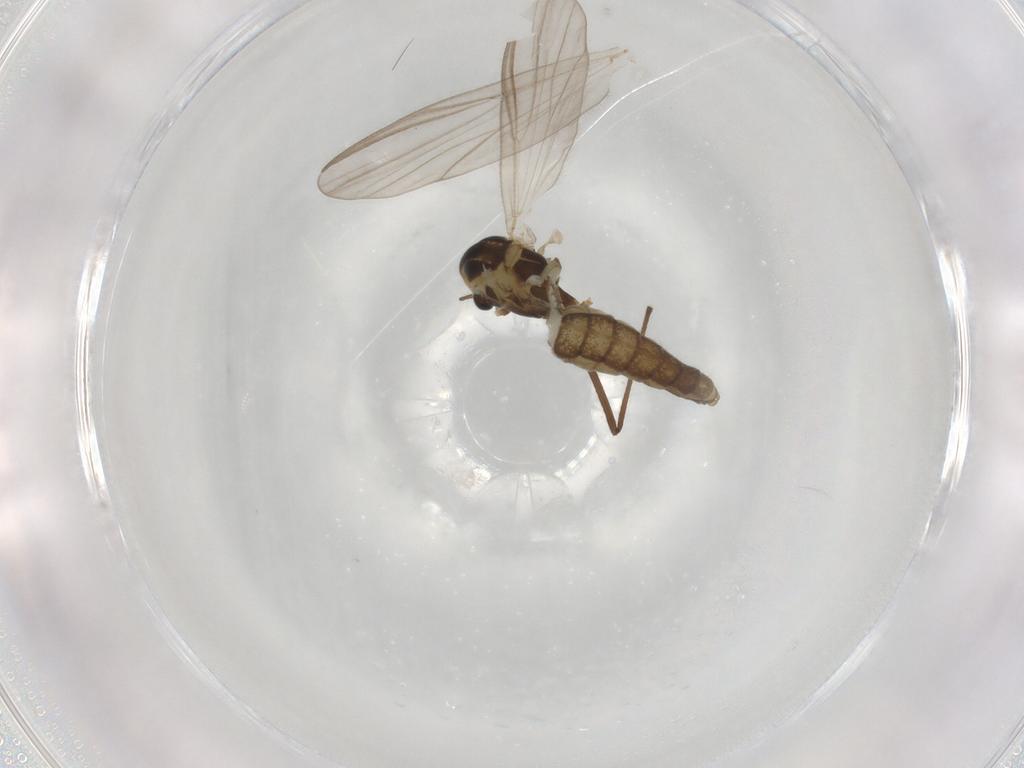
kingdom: Animalia
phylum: Arthropoda
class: Insecta
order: Diptera
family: Chironomidae
